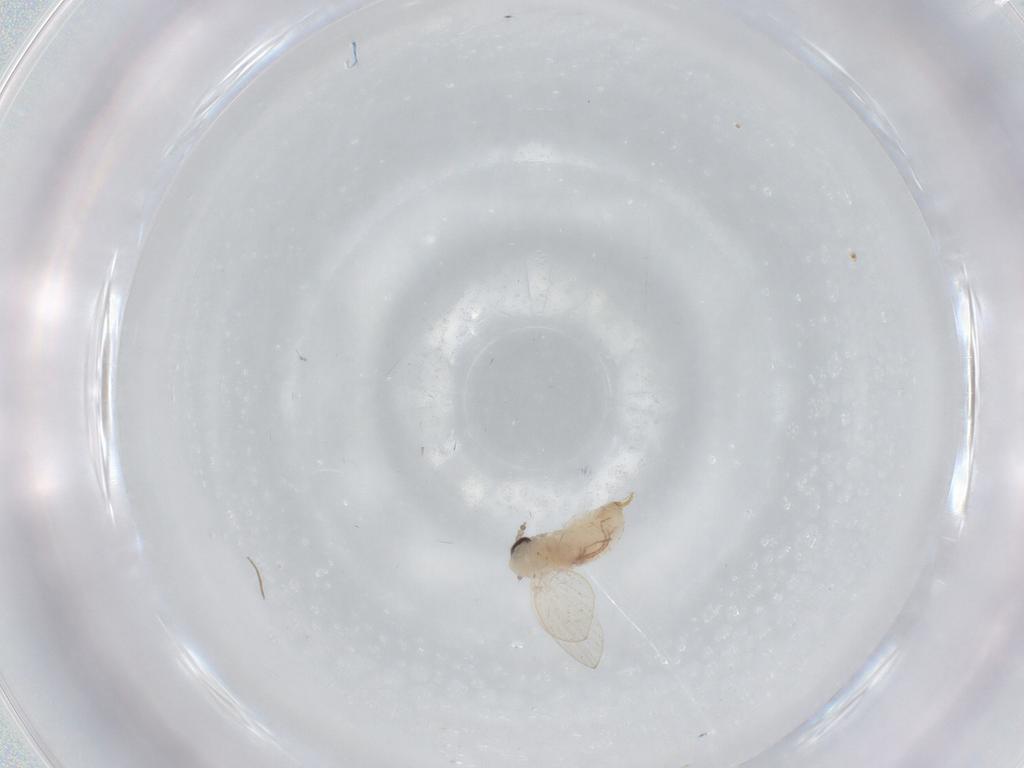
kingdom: Animalia
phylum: Arthropoda
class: Insecta
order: Diptera
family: Psychodidae
